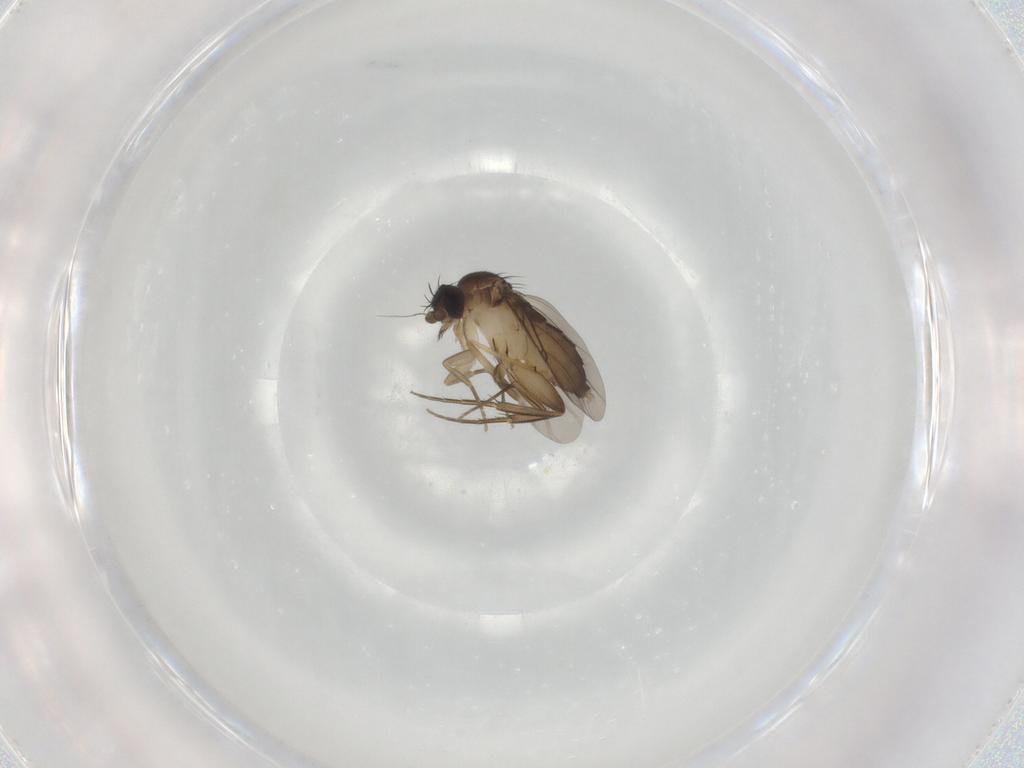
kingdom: Animalia
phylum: Arthropoda
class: Insecta
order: Diptera
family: Phoridae
